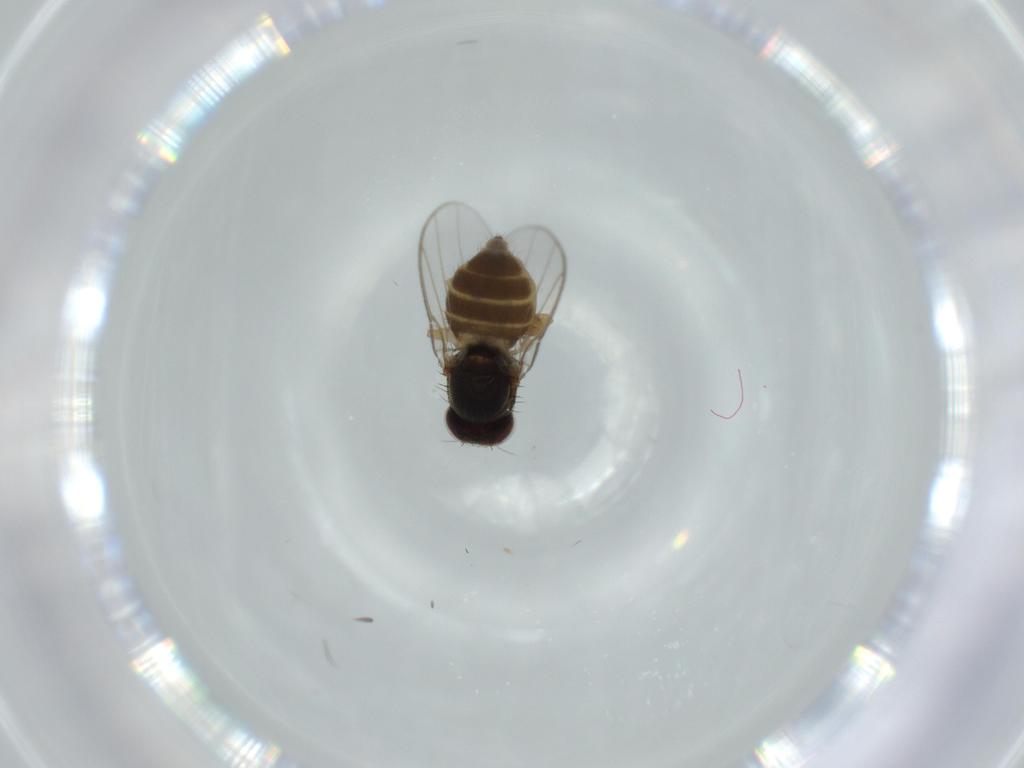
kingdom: Animalia
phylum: Arthropoda
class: Insecta
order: Diptera
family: Chloropidae
